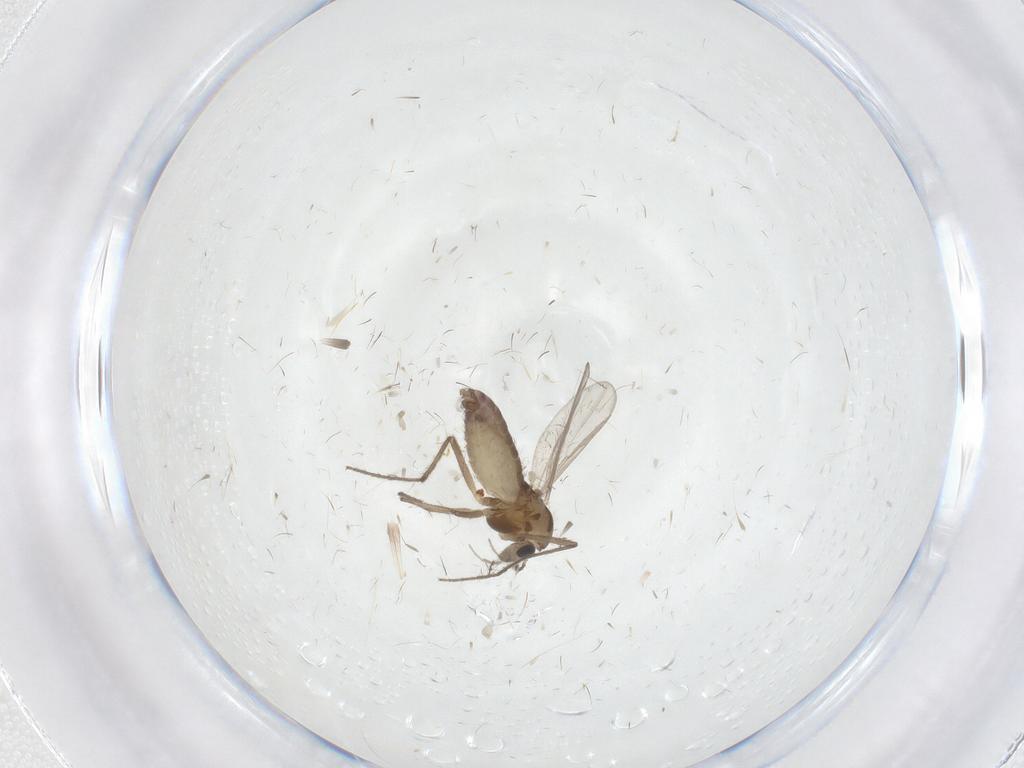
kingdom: Animalia
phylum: Arthropoda
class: Insecta
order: Diptera
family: Chironomidae
